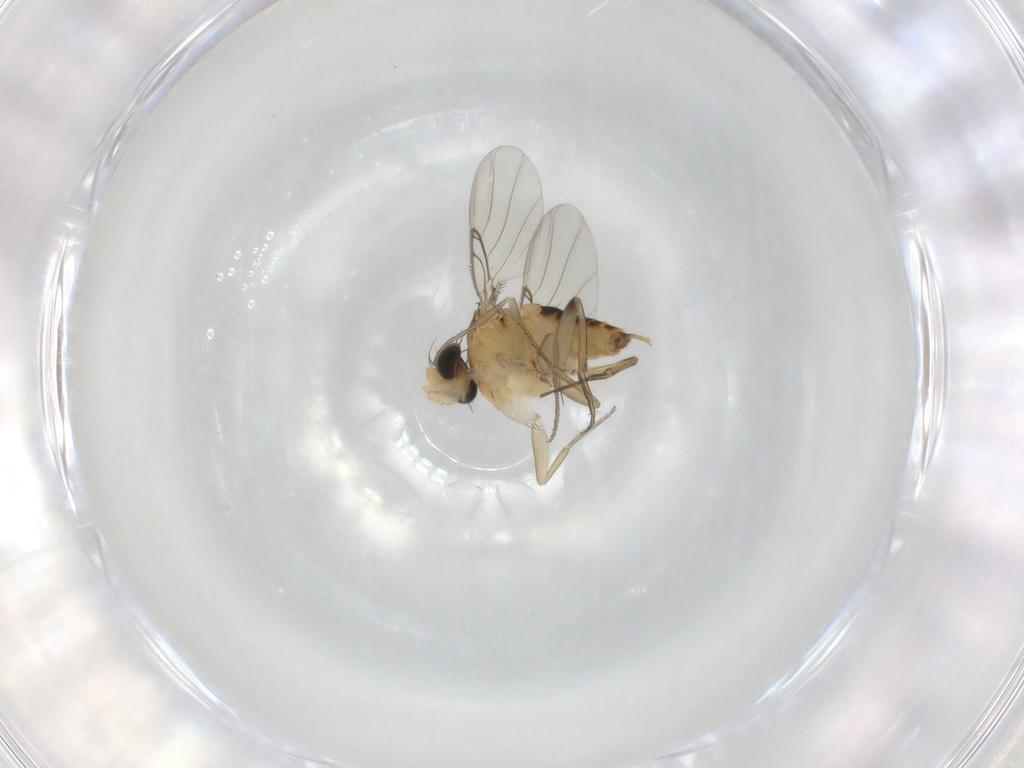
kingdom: Animalia
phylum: Arthropoda
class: Insecta
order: Diptera
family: Phoridae
